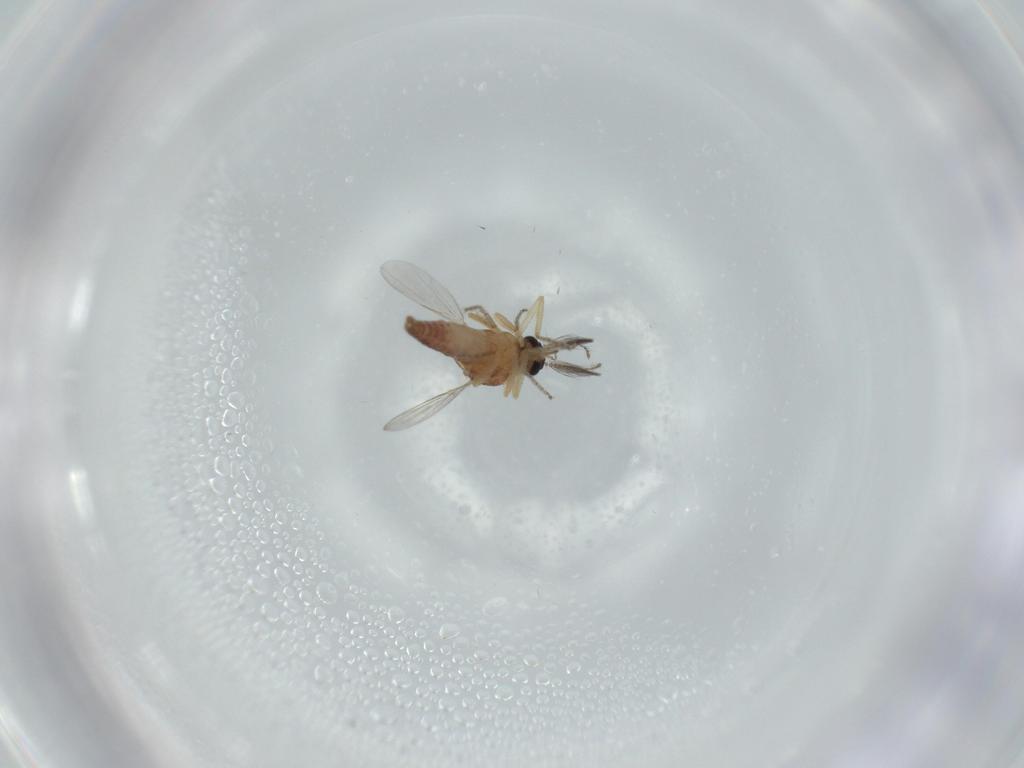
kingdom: Animalia
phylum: Arthropoda
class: Insecta
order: Diptera
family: Ceratopogonidae
